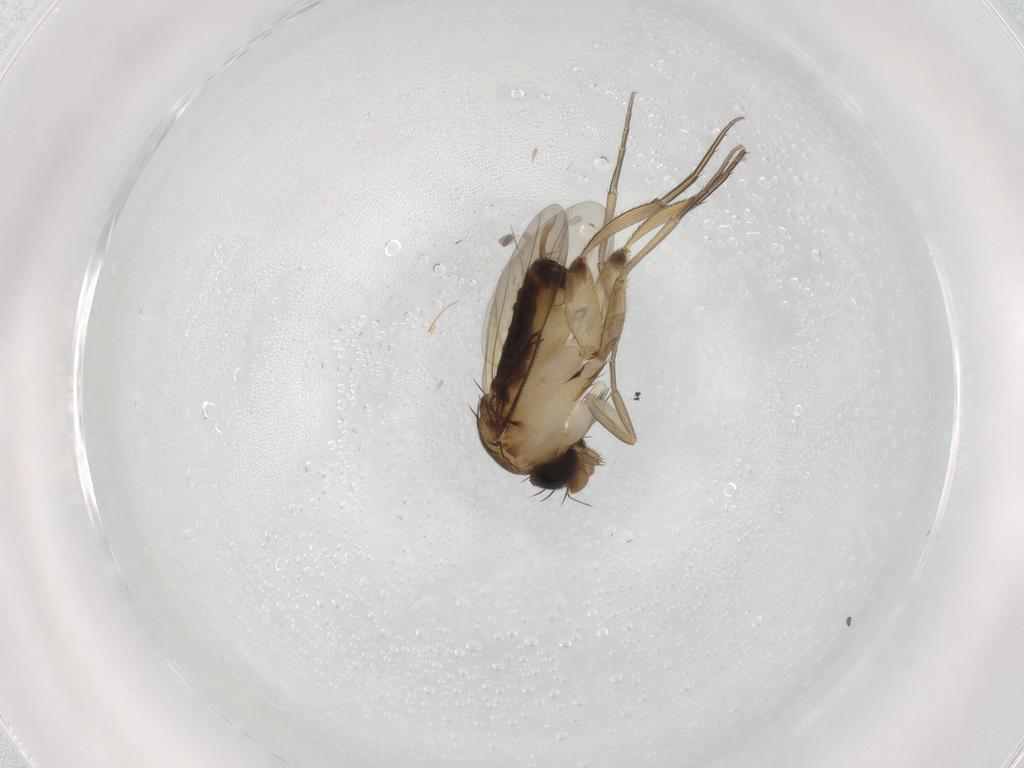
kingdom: Animalia
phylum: Arthropoda
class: Insecta
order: Diptera
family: Phoridae
